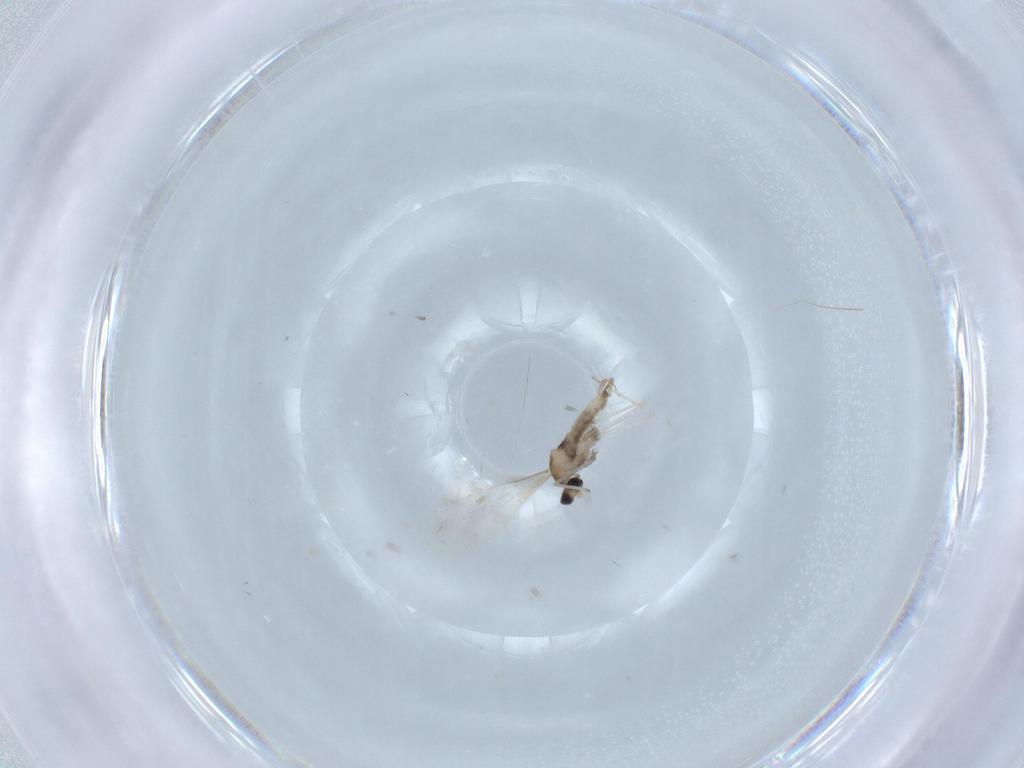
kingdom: Animalia
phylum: Arthropoda
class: Insecta
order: Diptera
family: Cecidomyiidae
